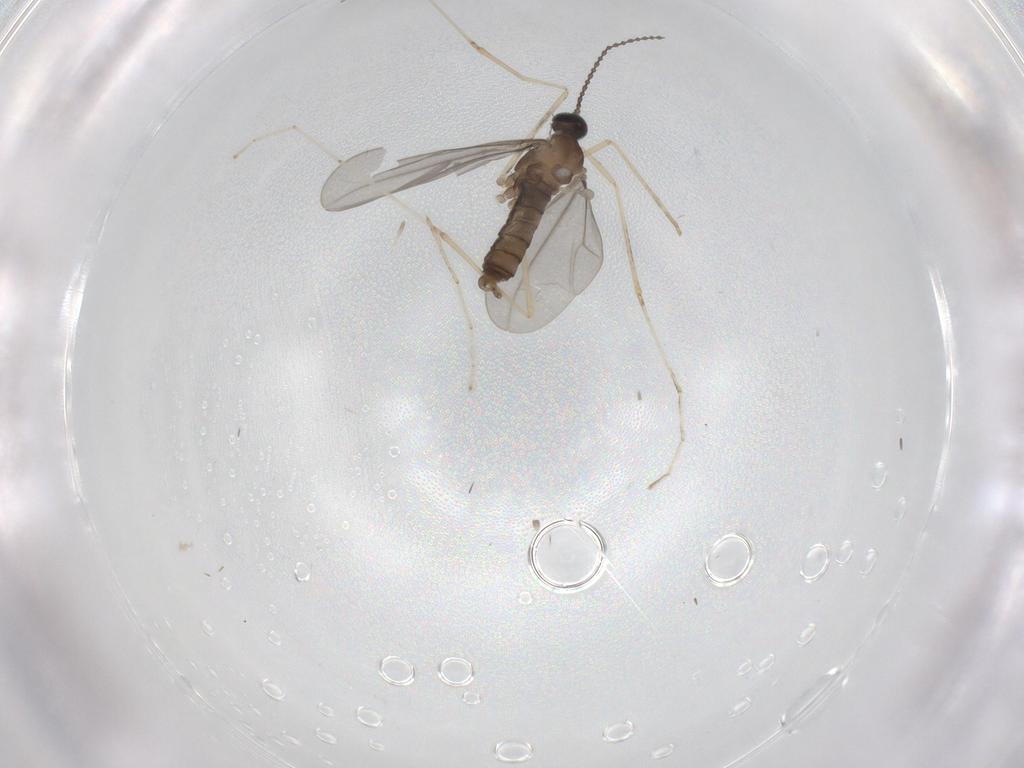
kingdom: Animalia
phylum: Arthropoda
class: Insecta
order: Diptera
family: Cecidomyiidae
